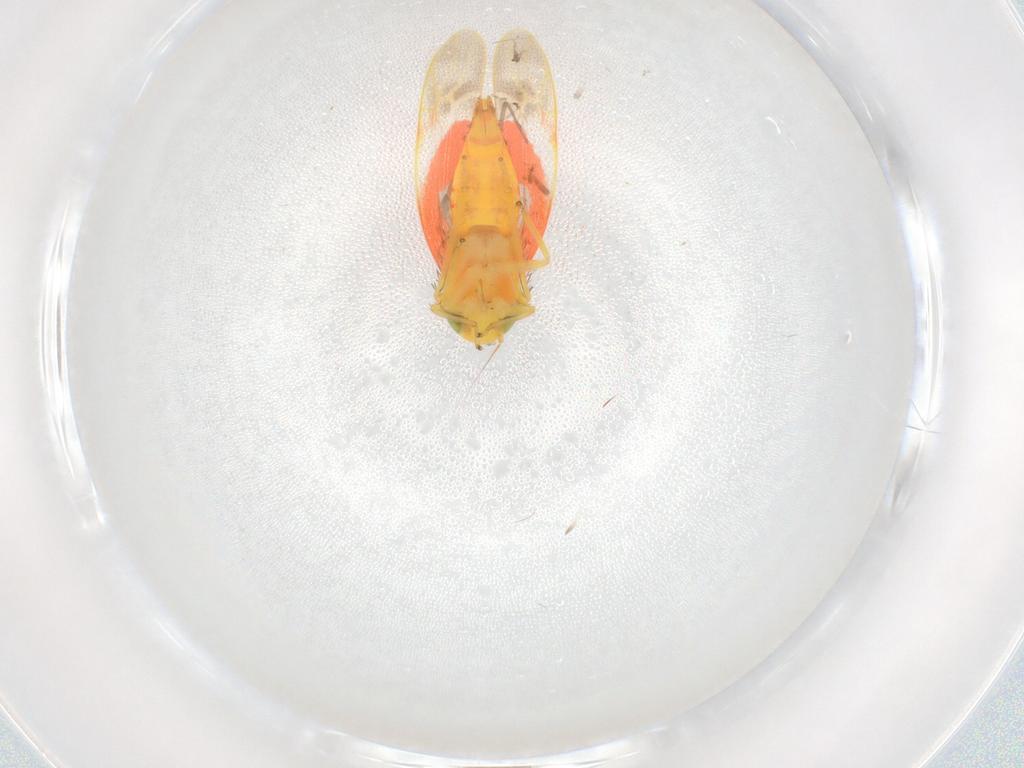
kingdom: Animalia
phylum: Arthropoda
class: Insecta
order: Hemiptera
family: Cicadellidae
